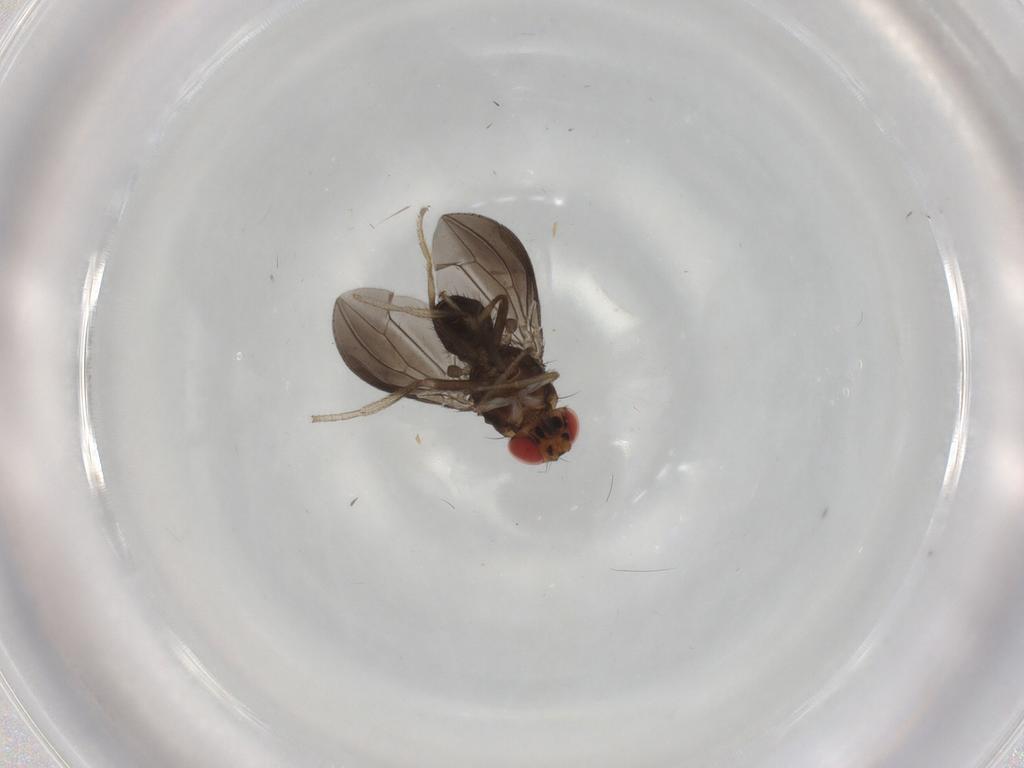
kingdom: Animalia
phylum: Arthropoda
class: Insecta
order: Diptera
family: Drosophilidae
